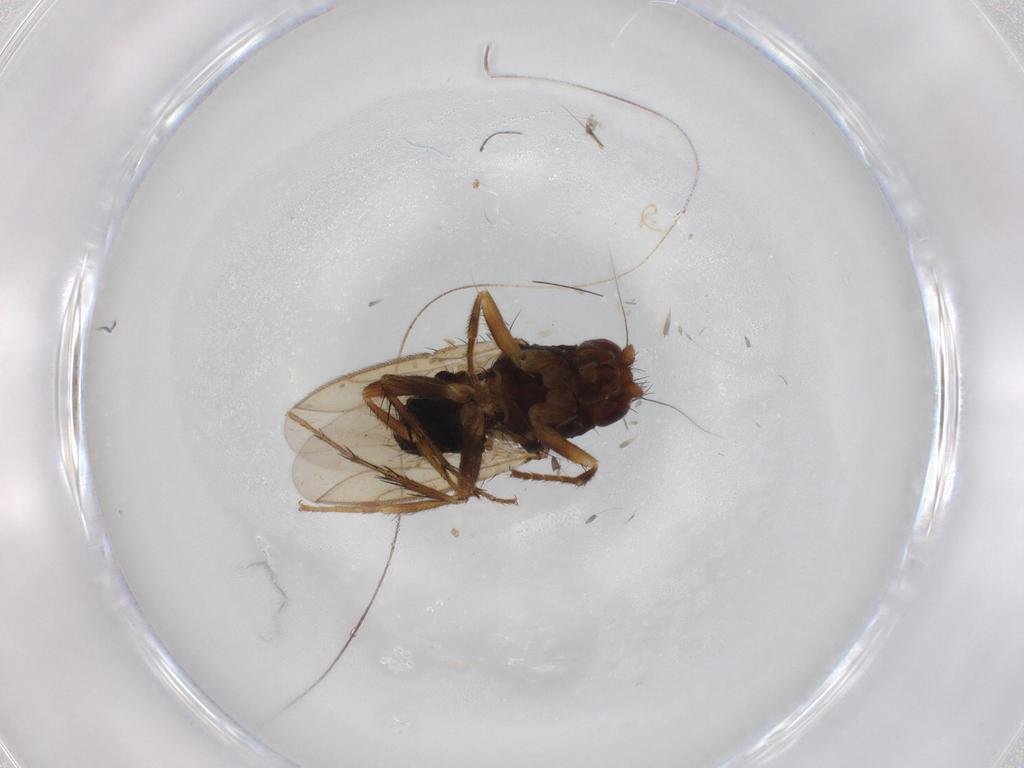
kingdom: Animalia
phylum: Arthropoda
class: Insecta
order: Diptera
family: Sphaeroceridae
